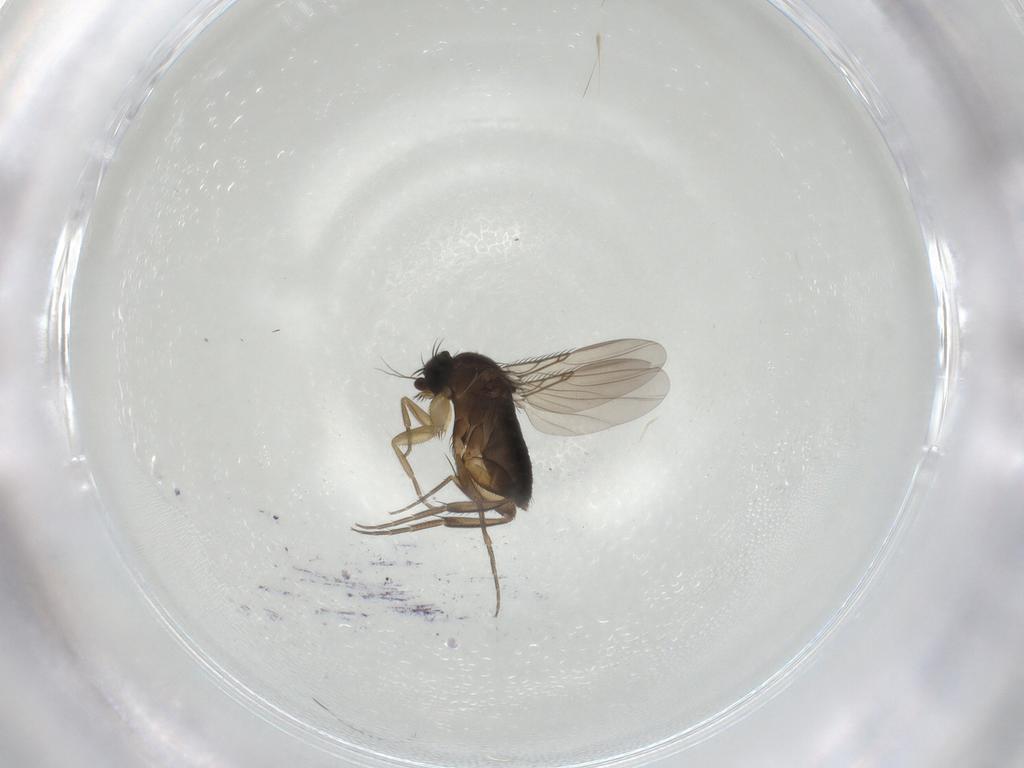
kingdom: Animalia
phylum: Arthropoda
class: Insecta
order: Diptera
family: Phoridae
